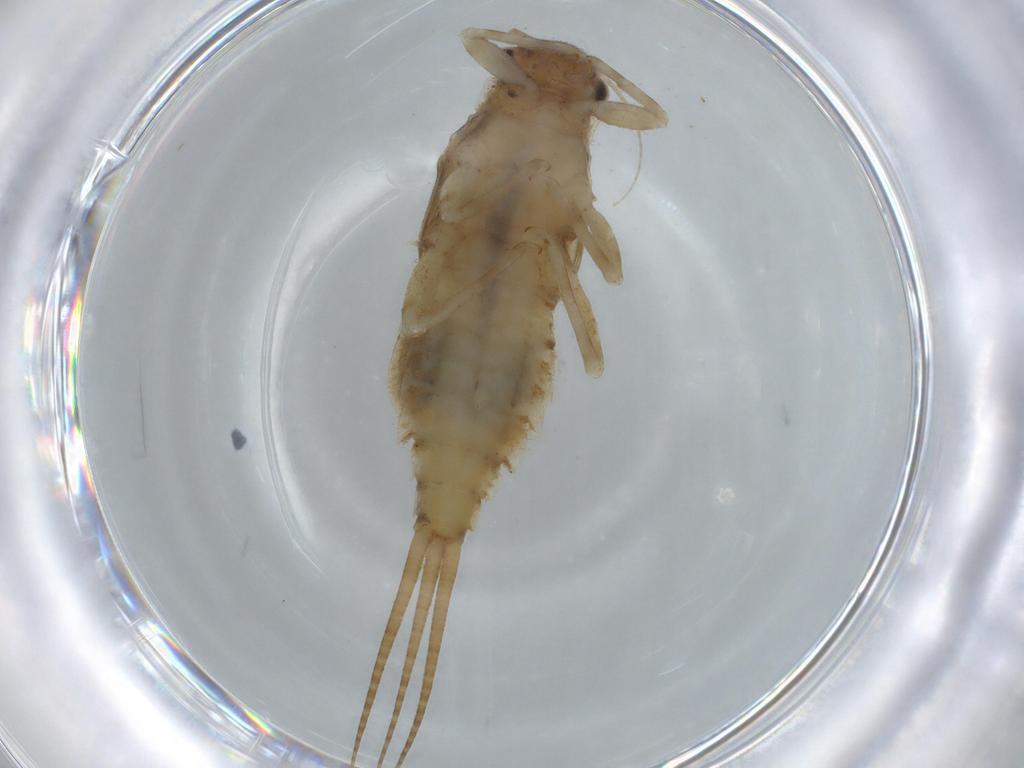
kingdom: Animalia
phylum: Arthropoda
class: Insecta
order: Ephemeroptera
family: Caenidae
